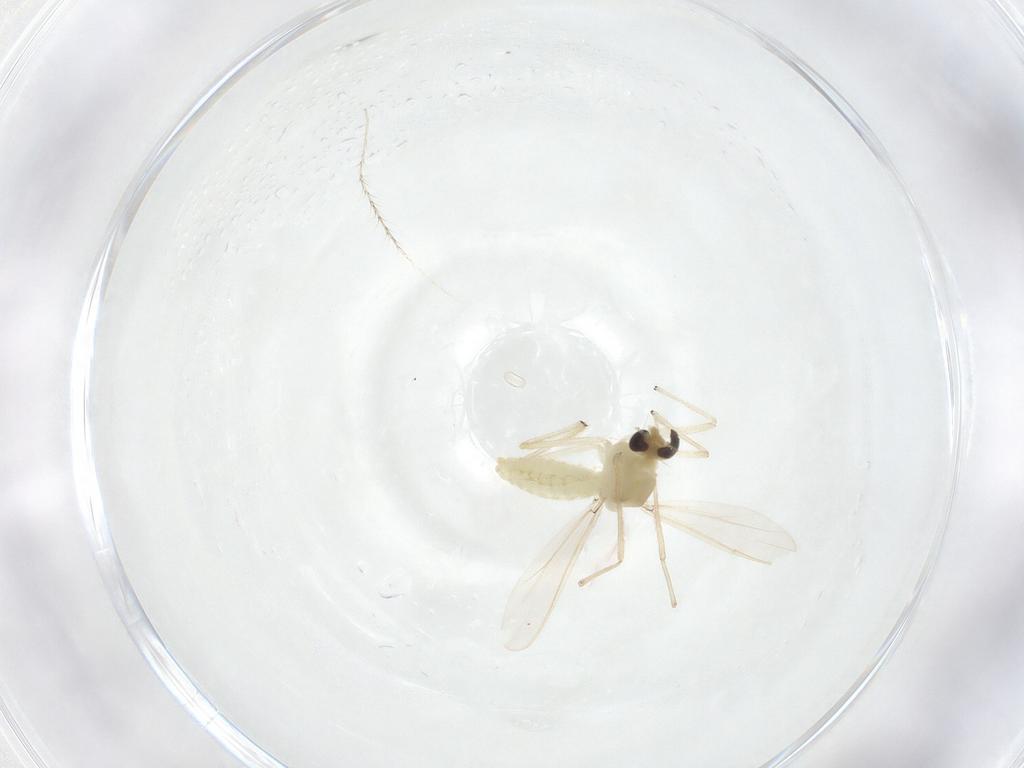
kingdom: Animalia
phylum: Arthropoda
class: Insecta
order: Diptera
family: Chironomidae
